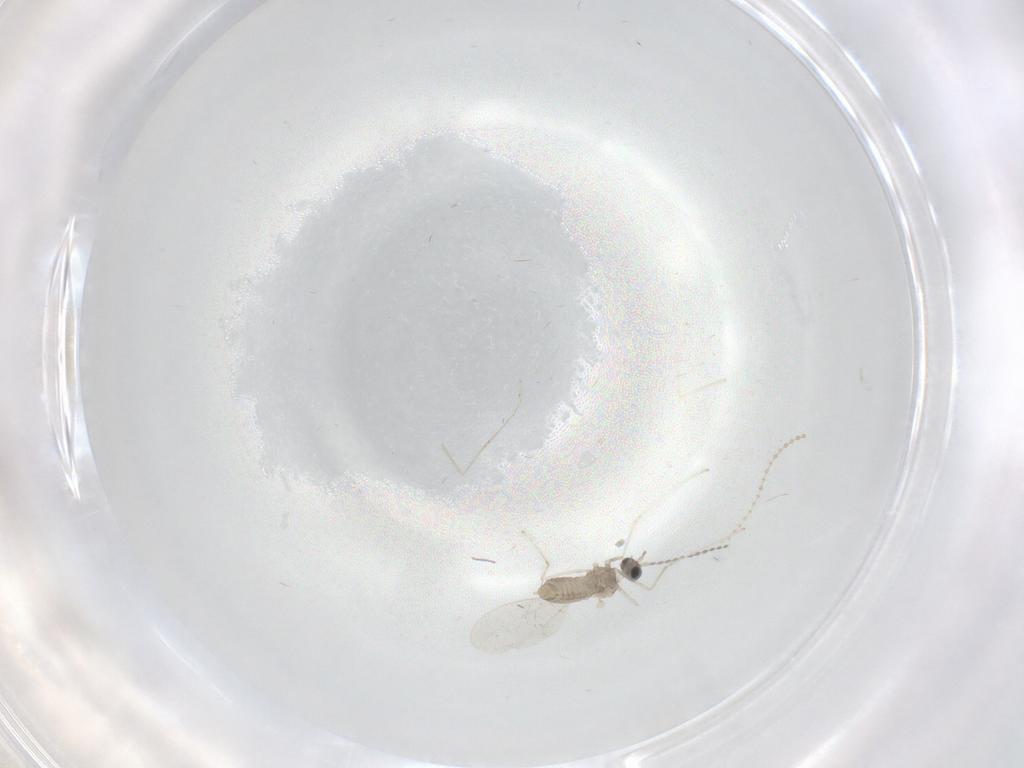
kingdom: Animalia
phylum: Arthropoda
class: Insecta
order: Diptera
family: Cecidomyiidae
